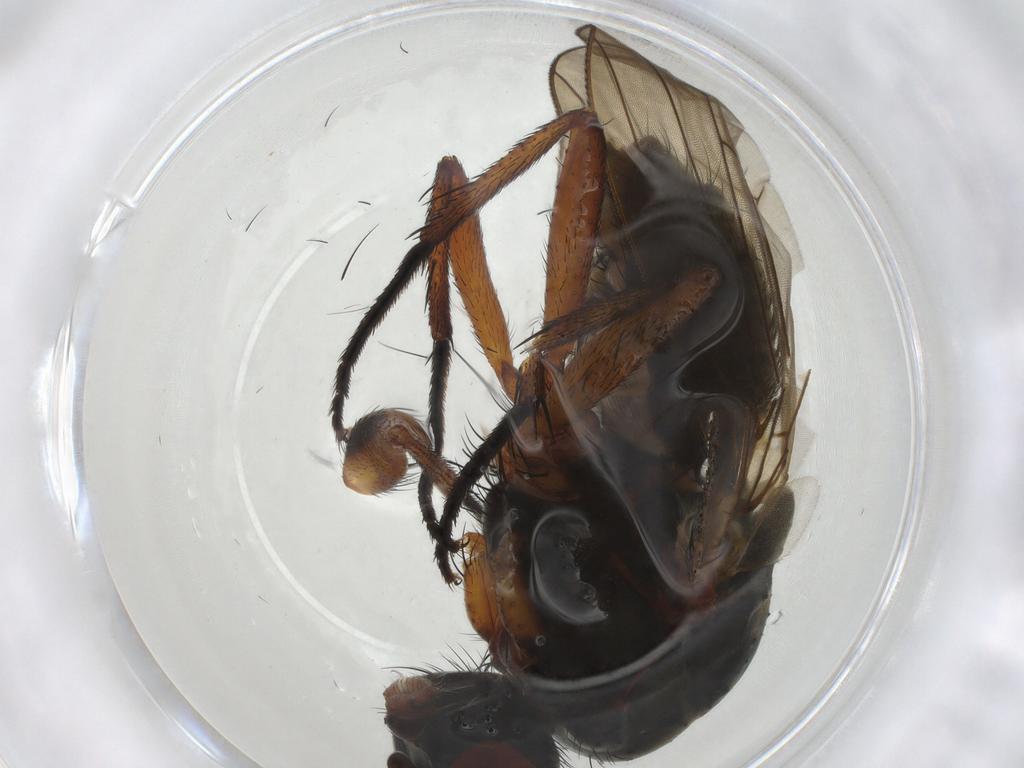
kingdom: Animalia
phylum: Arthropoda
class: Insecta
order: Diptera
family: Anthomyiidae
